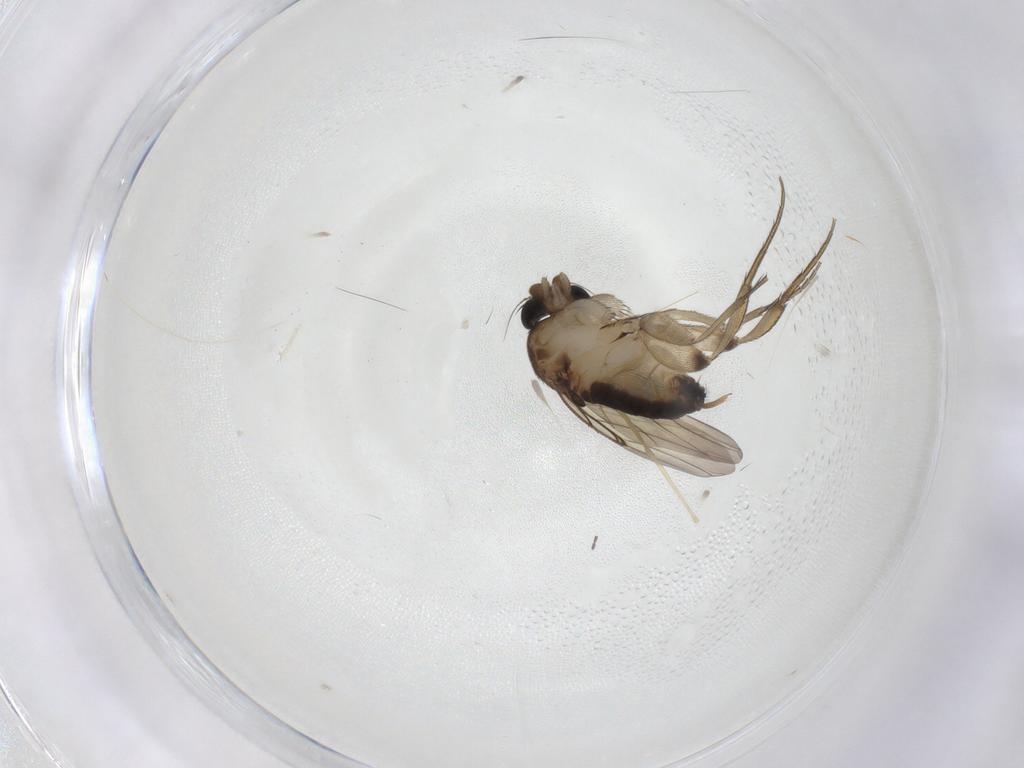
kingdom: Animalia
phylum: Arthropoda
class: Insecta
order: Diptera
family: Phoridae
